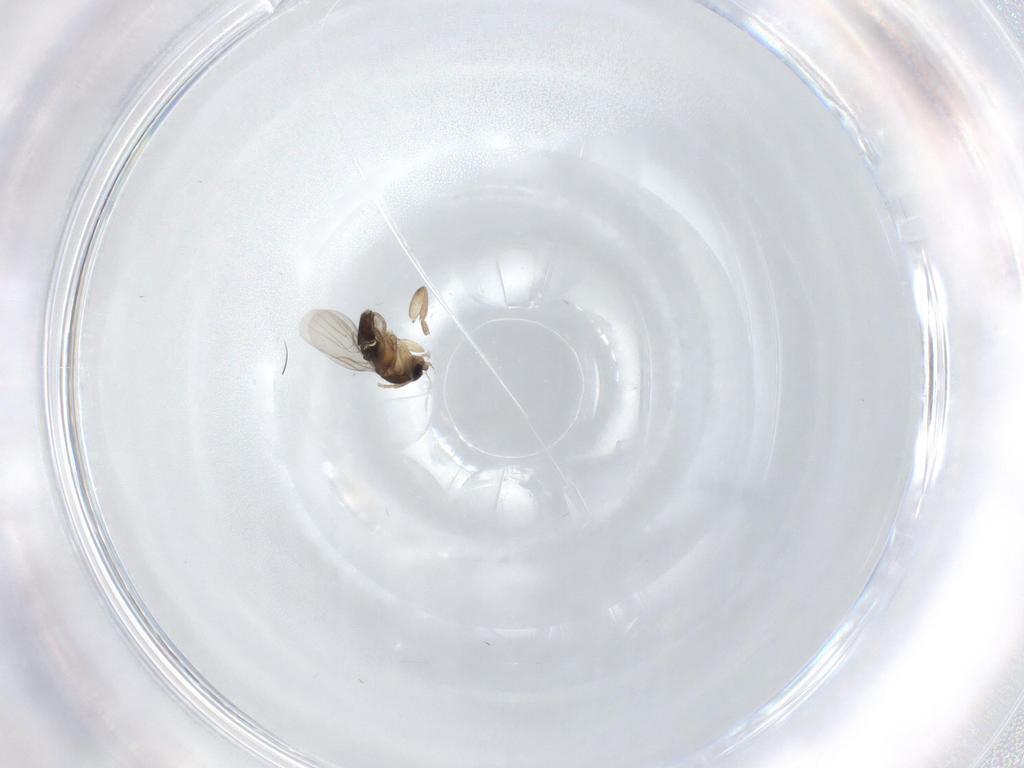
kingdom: Animalia
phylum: Arthropoda
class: Insecta
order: Diptera
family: Phoridae
